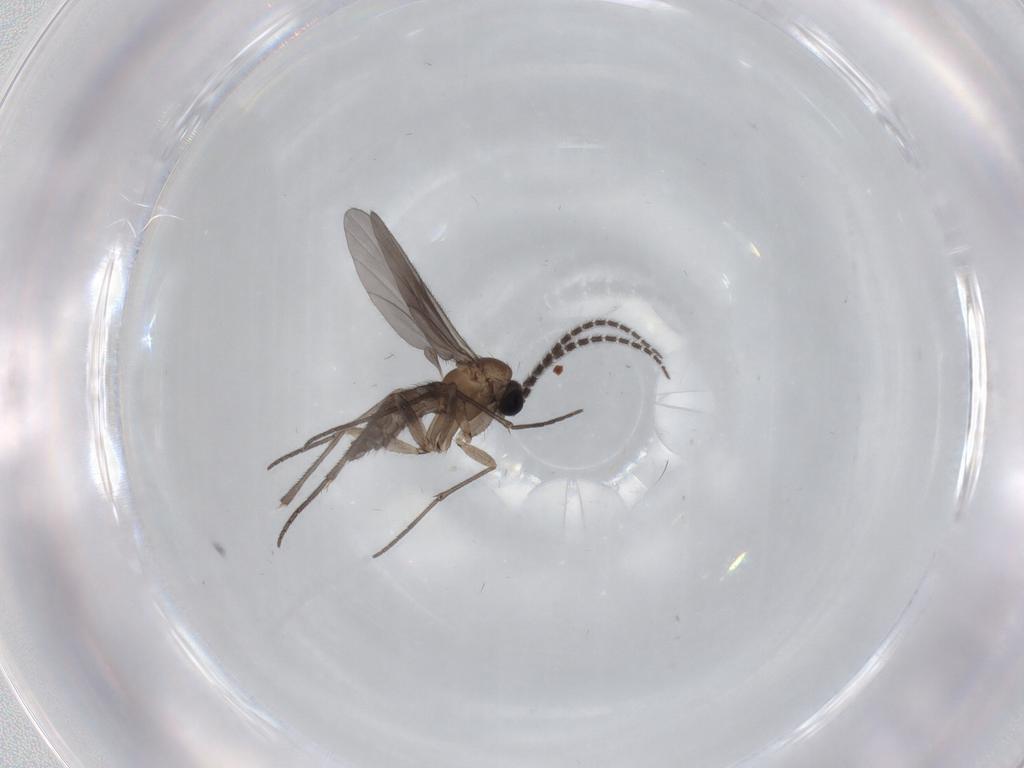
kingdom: Animalia
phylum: Arthropoda
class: Insecta
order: Diptera
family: Sciaridae
